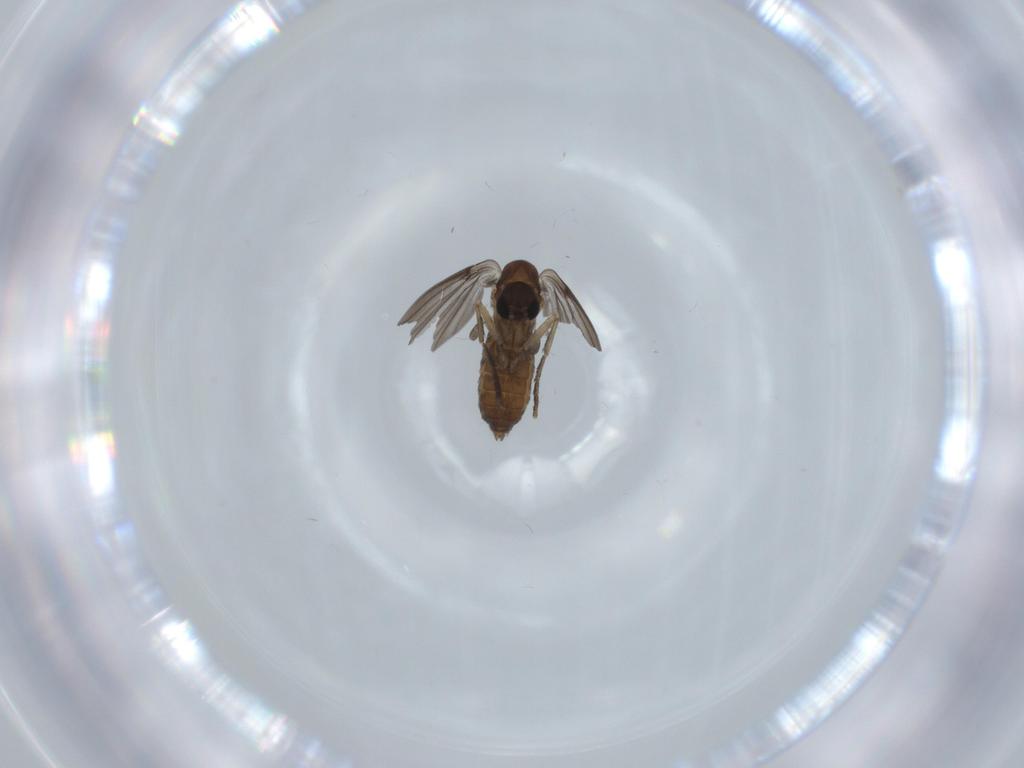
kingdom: Animalia
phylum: Arthropoda
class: Insecta
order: Diptera
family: Psychodidae
